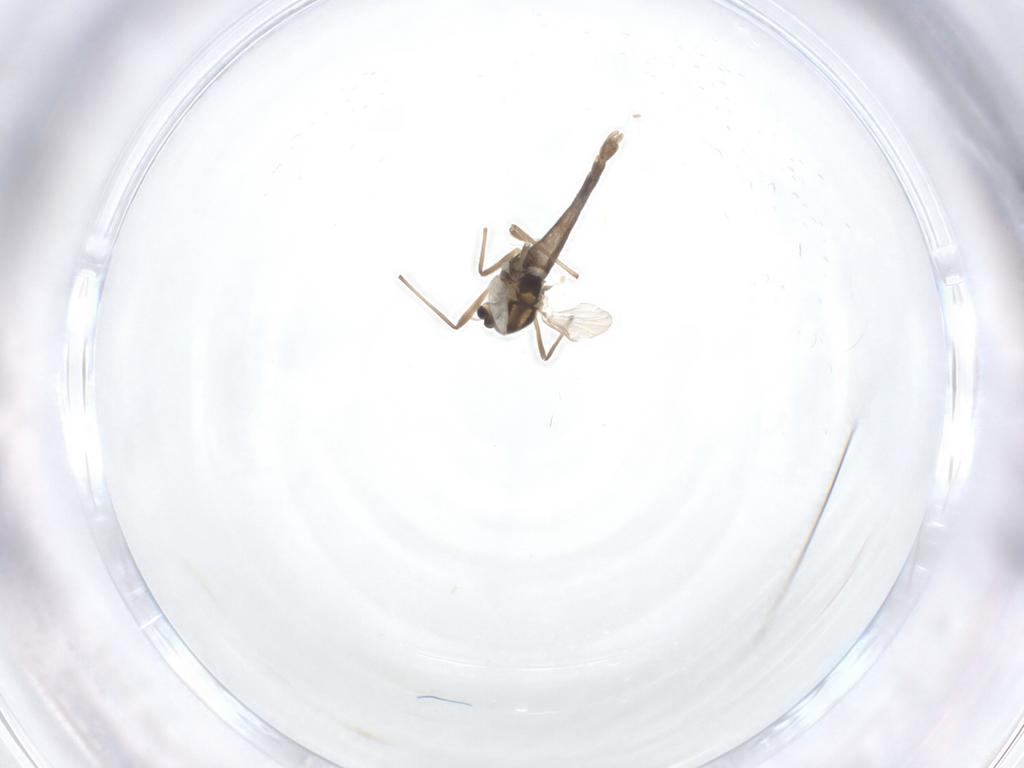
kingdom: Animalia
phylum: Arthropoda
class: Insecta
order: Diptera
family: Chironomidae
